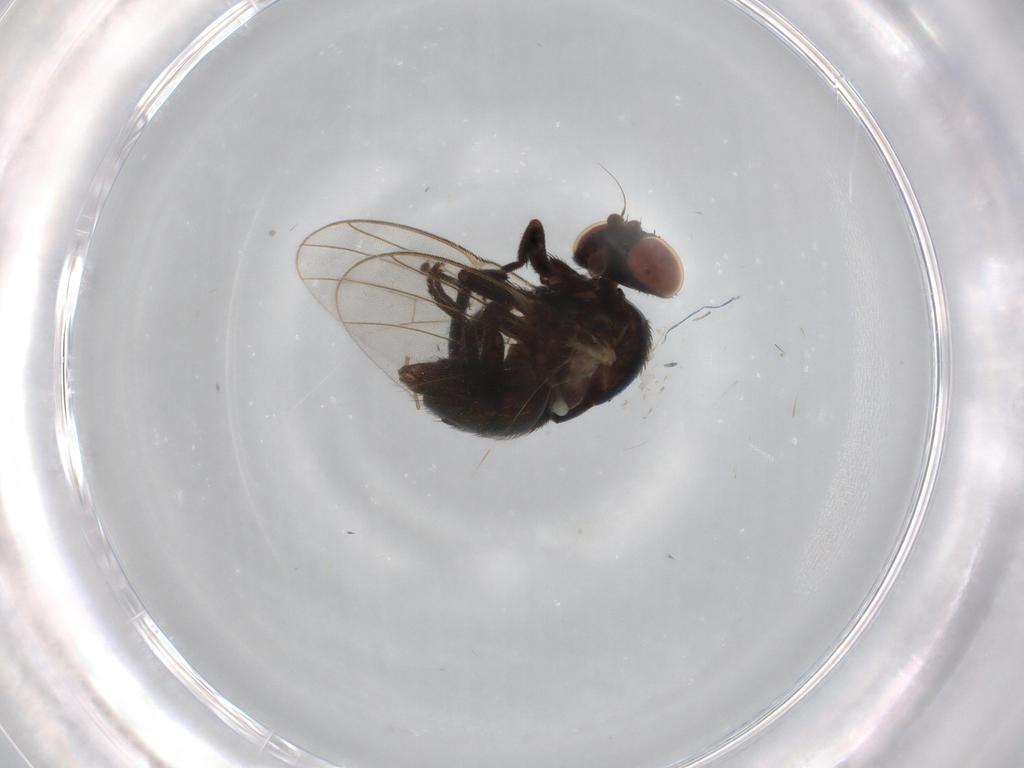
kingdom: Animalia
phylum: Arthropoda
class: Insecta
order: Diptera
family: Agromyzidae
